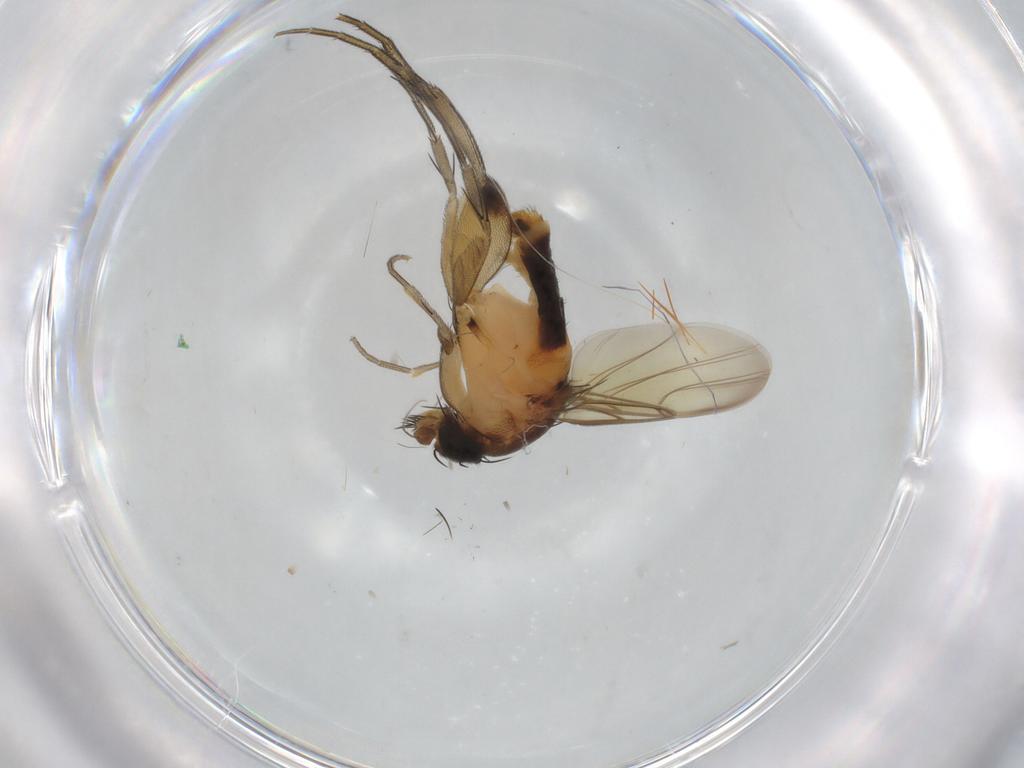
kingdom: Animalia
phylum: Arthropoda
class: Insecta
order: Diptera
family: Phoridae
